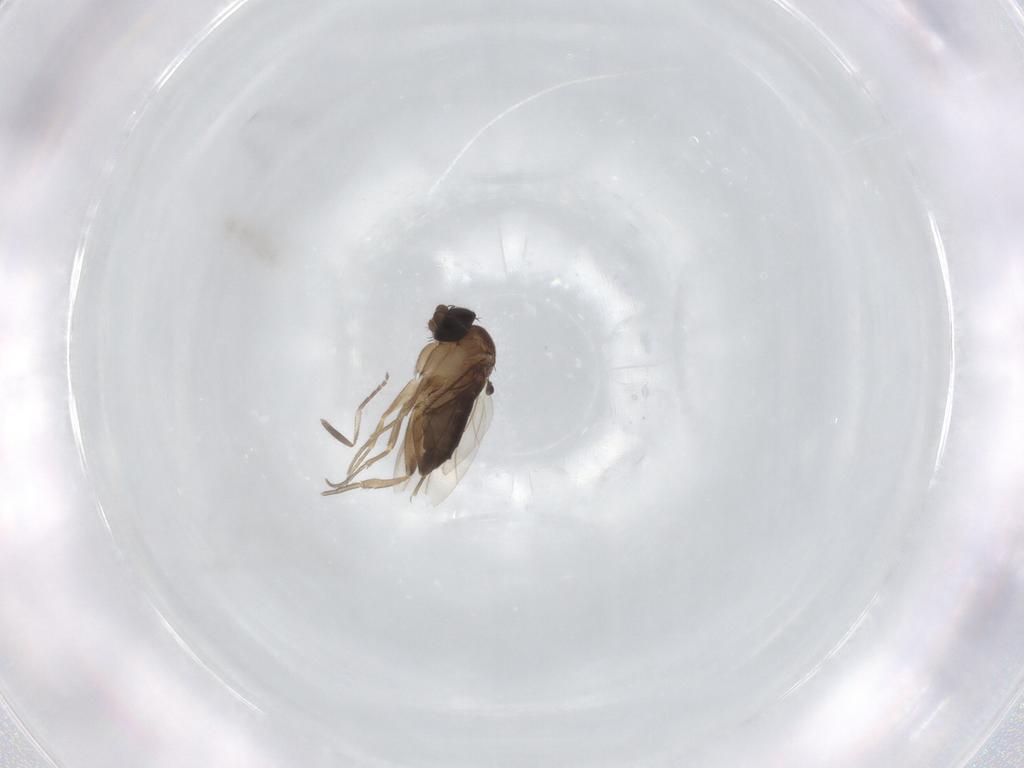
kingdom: Animalia
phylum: Arthropoda
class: Insecta
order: Diptera
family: Phoridae
